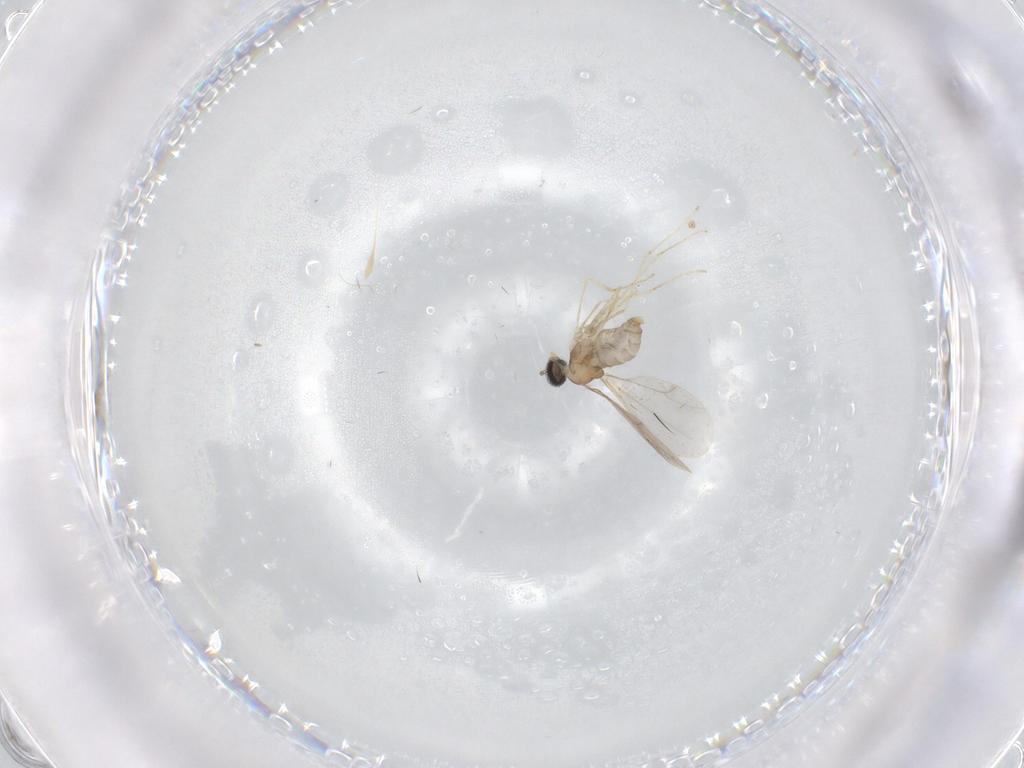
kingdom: Animalia
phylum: Arthropoda
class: Insecta
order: Diptera
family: Cecidomyiidae
